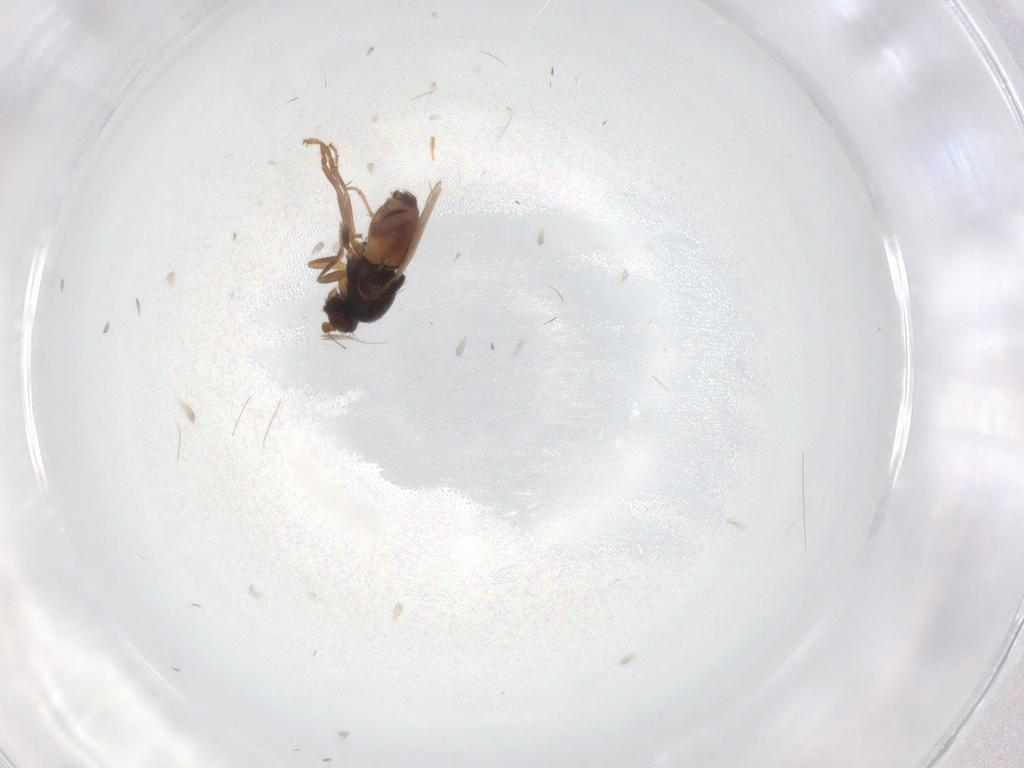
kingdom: Animalia
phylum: Arthropoda
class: Insecta
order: Diptera
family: Sphaeroceridae
